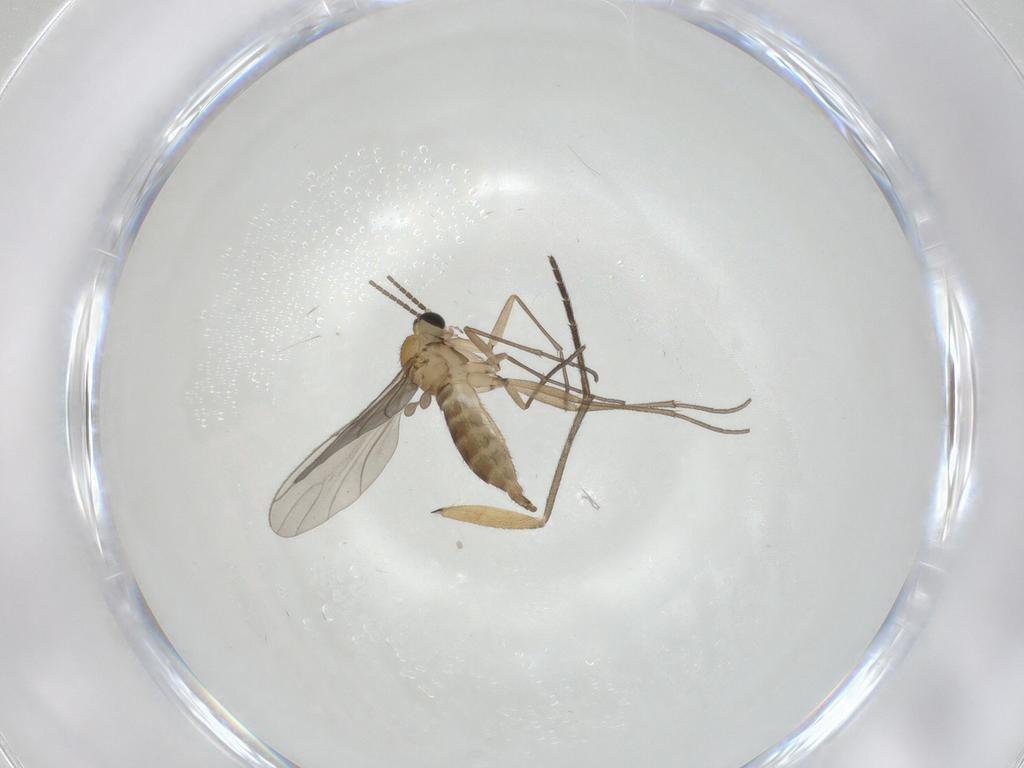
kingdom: Animalia
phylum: Arthropoda
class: Insecta
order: Diptera
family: Sciaridae
